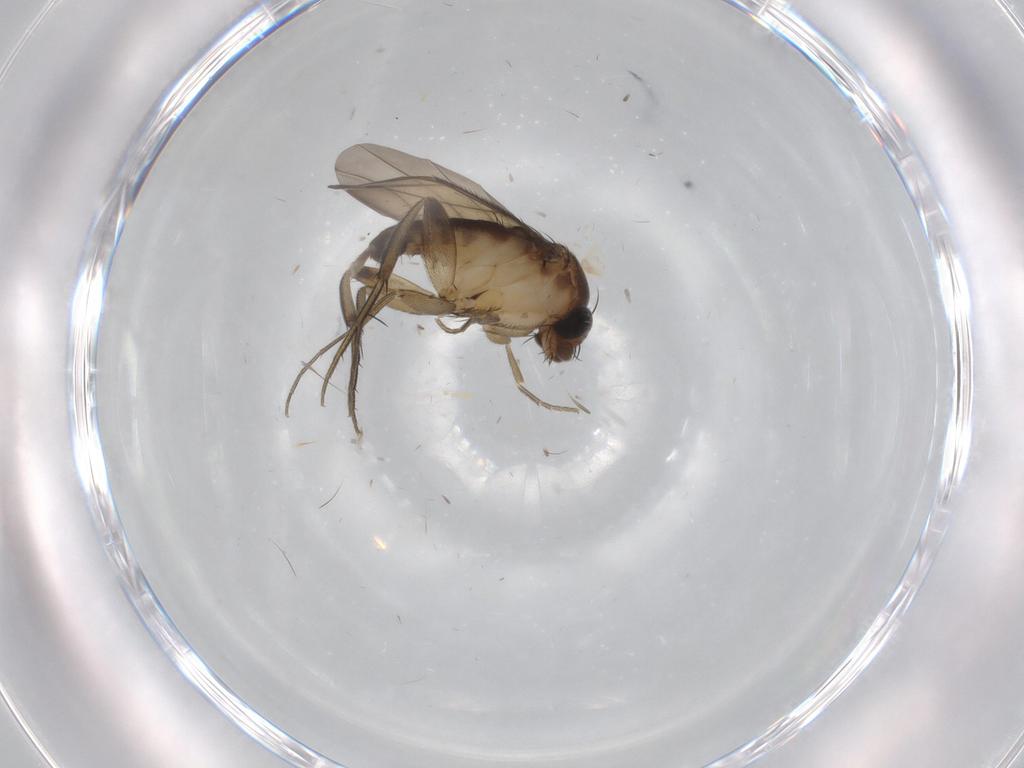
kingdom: Animalia
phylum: Arthropoda
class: Insecta
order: Diptera
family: Phoridae
